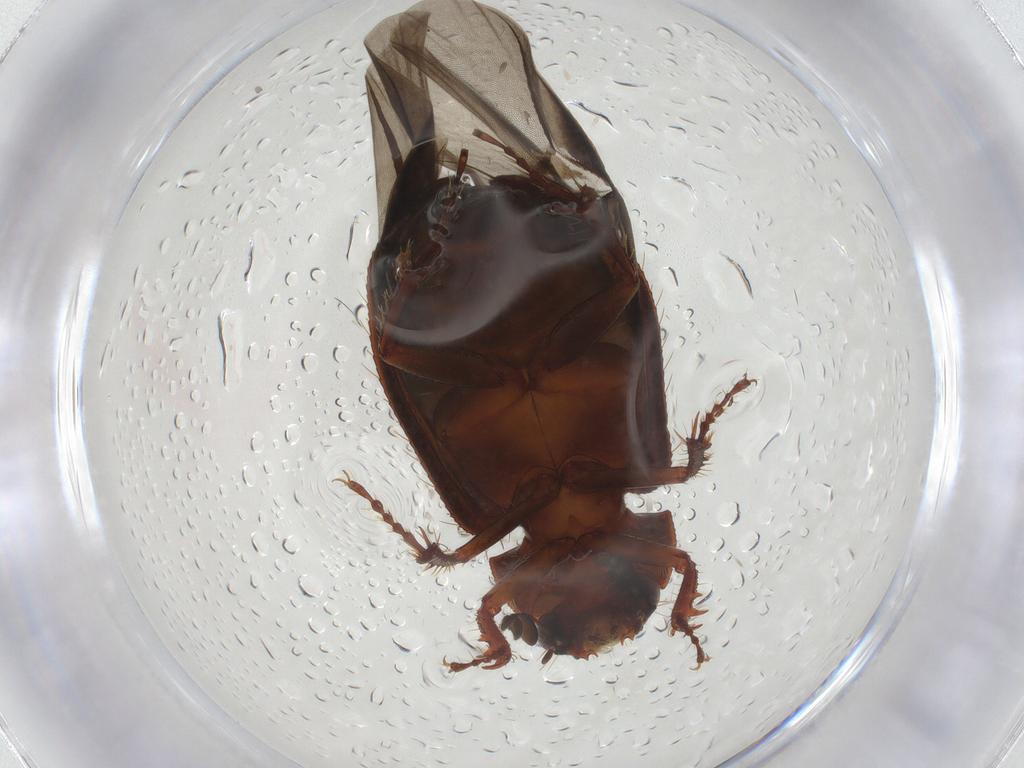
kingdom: Animalia
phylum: Arthropoda
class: Insecta
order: Coleoptera
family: Hybosoridae
